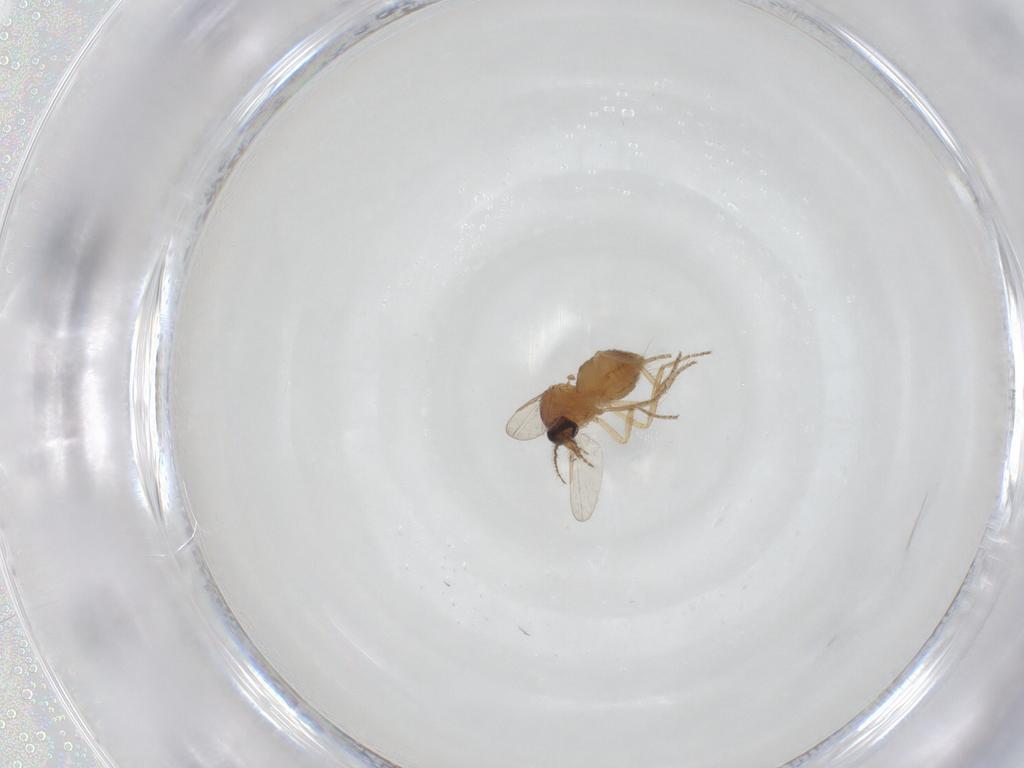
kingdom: Animalia
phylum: Arthropoda
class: Insecta
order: Diptera
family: Ceratopogonidae
